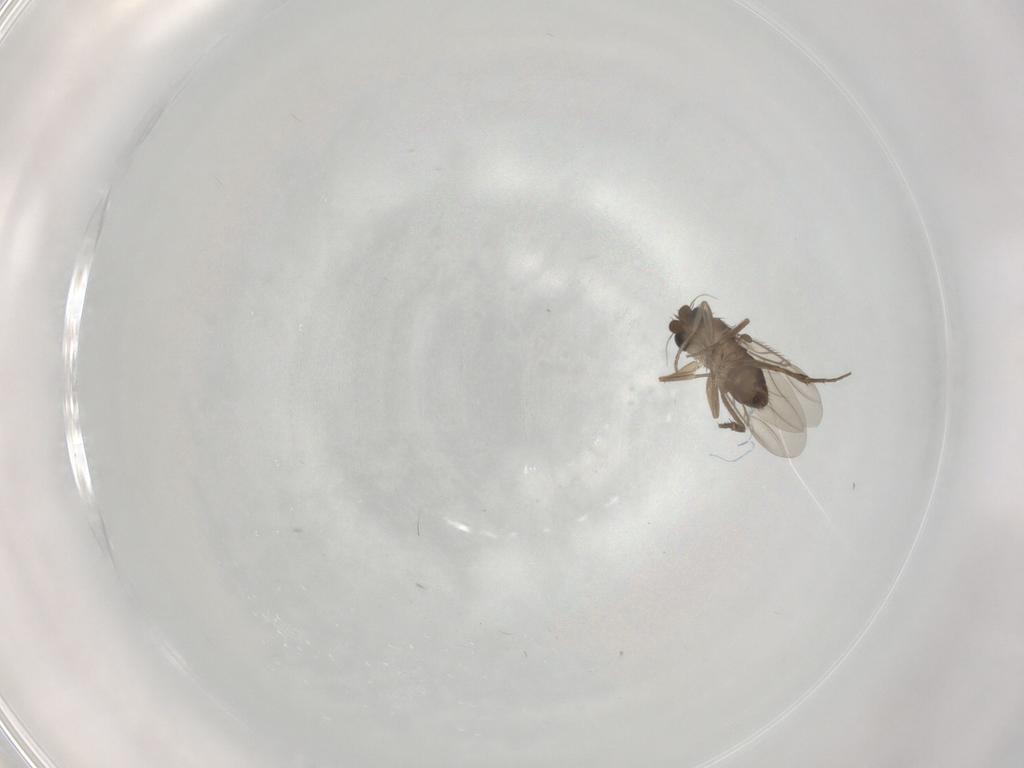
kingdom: Animalia
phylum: Arthropoda
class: Insecta
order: Diptera
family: Phoridae
